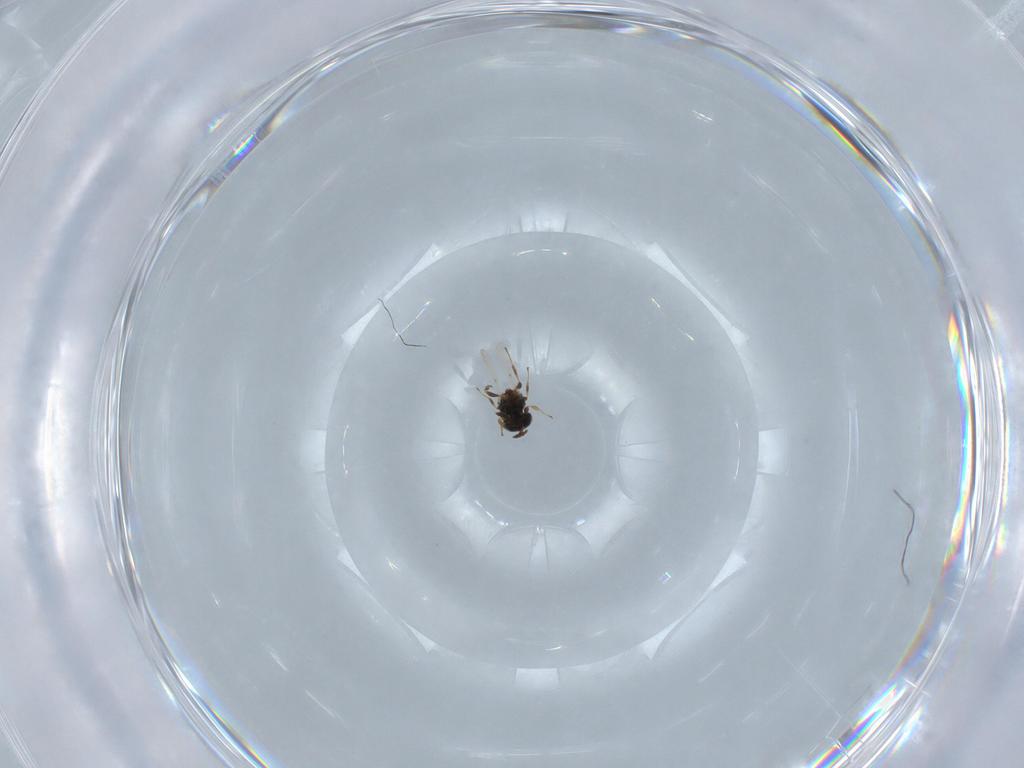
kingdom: Animalia
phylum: Arthropoda
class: Insecta
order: Hymenoptera
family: Platygastridae
